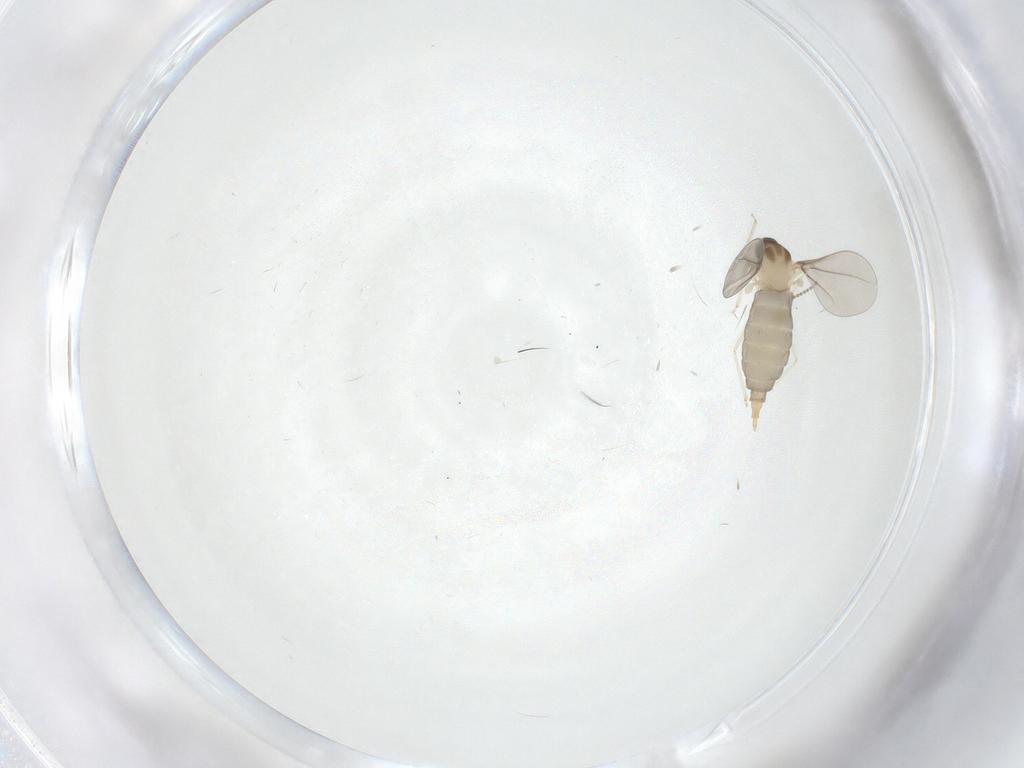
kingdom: Animalia
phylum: Arthropoda
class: Insecta
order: Diptera
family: Cecidomyiidae
